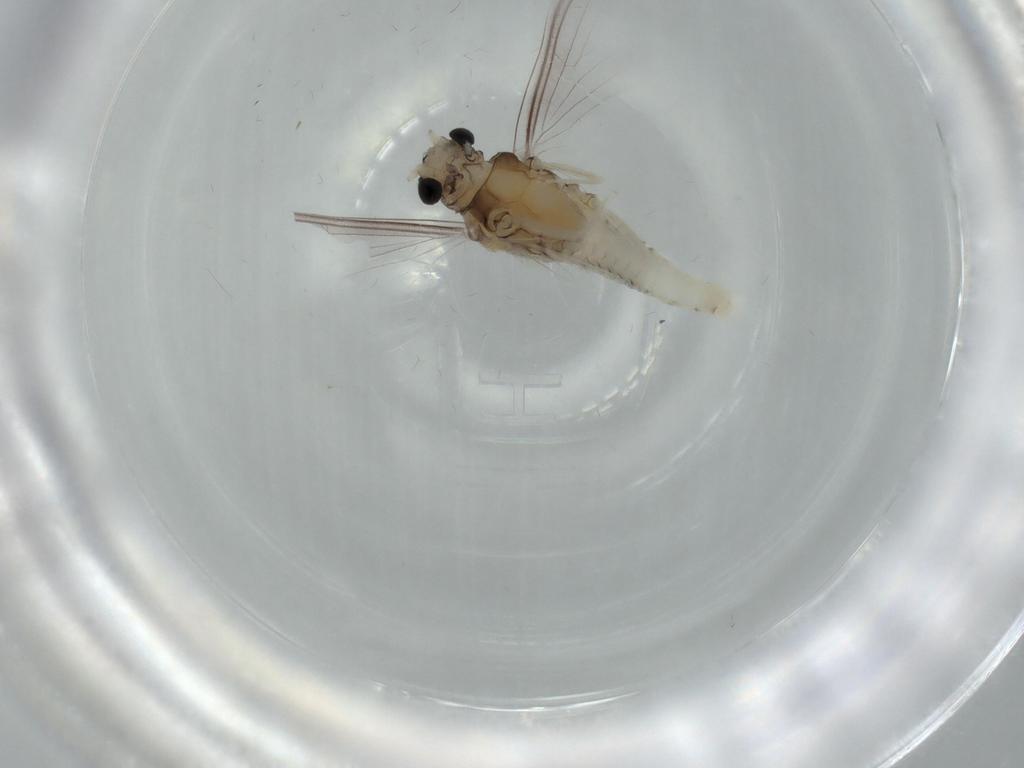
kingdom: Animalia
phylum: Arthropoda
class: Insecta
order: Ephemeroptera
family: Caenidae
